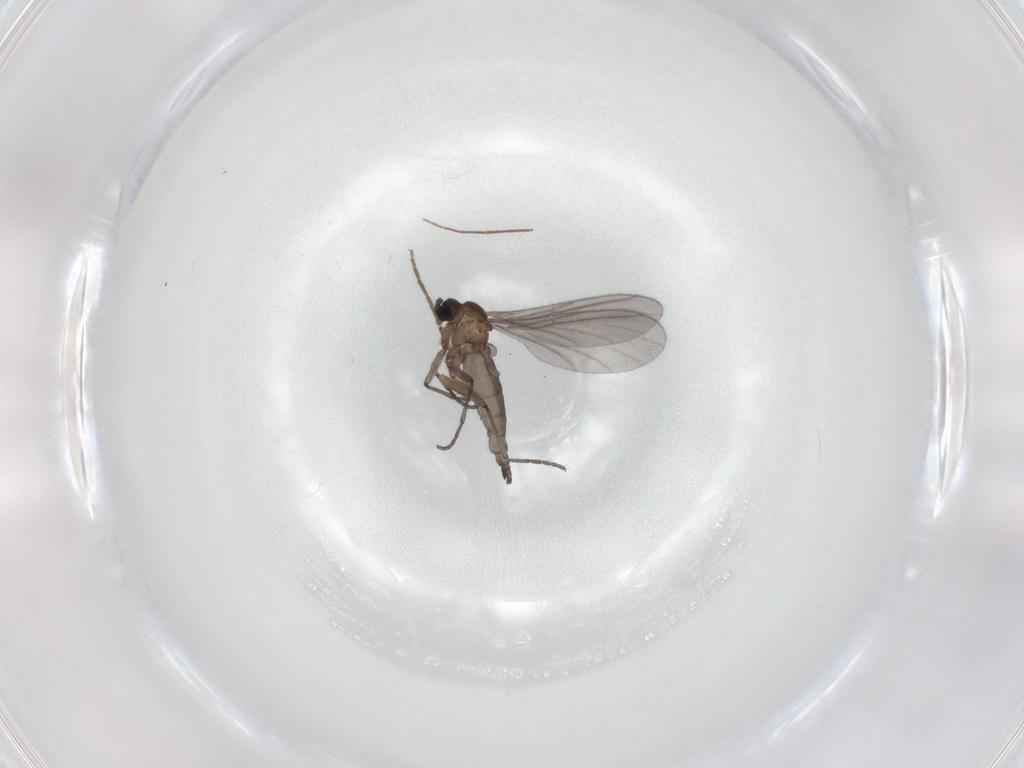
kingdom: Animalia
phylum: Arthropoda
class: Insecta
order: Diptera
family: Sciaridae
